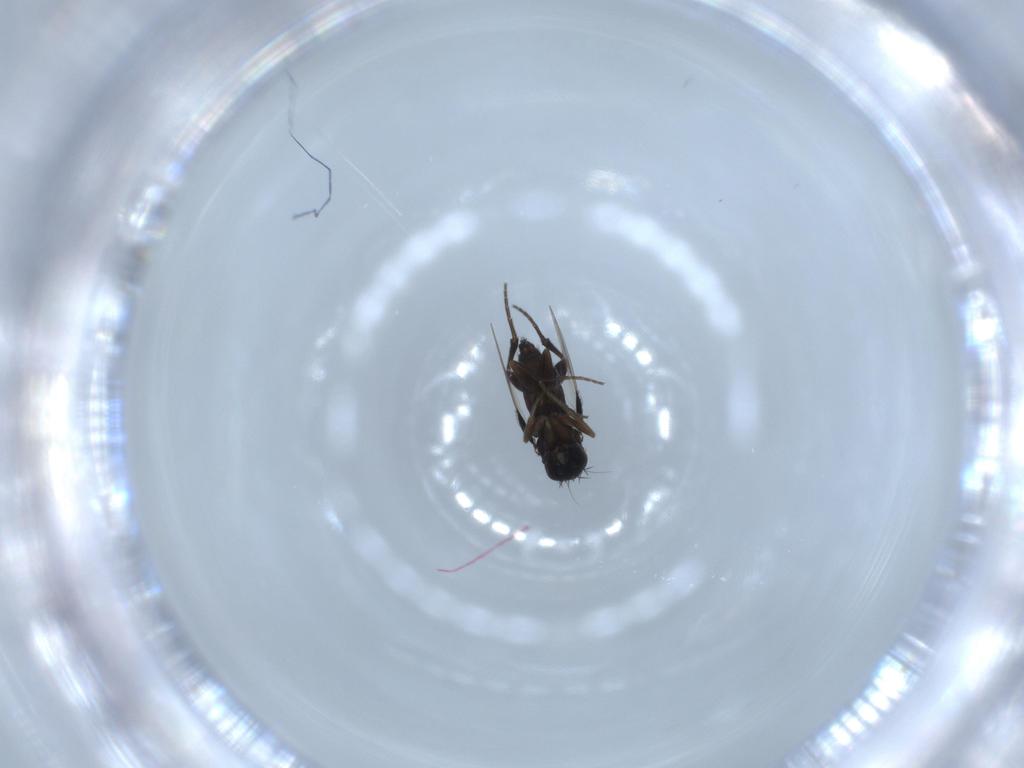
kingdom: Animalia
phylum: Arthropoda
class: Insecta
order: Diptera
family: Phoridae
